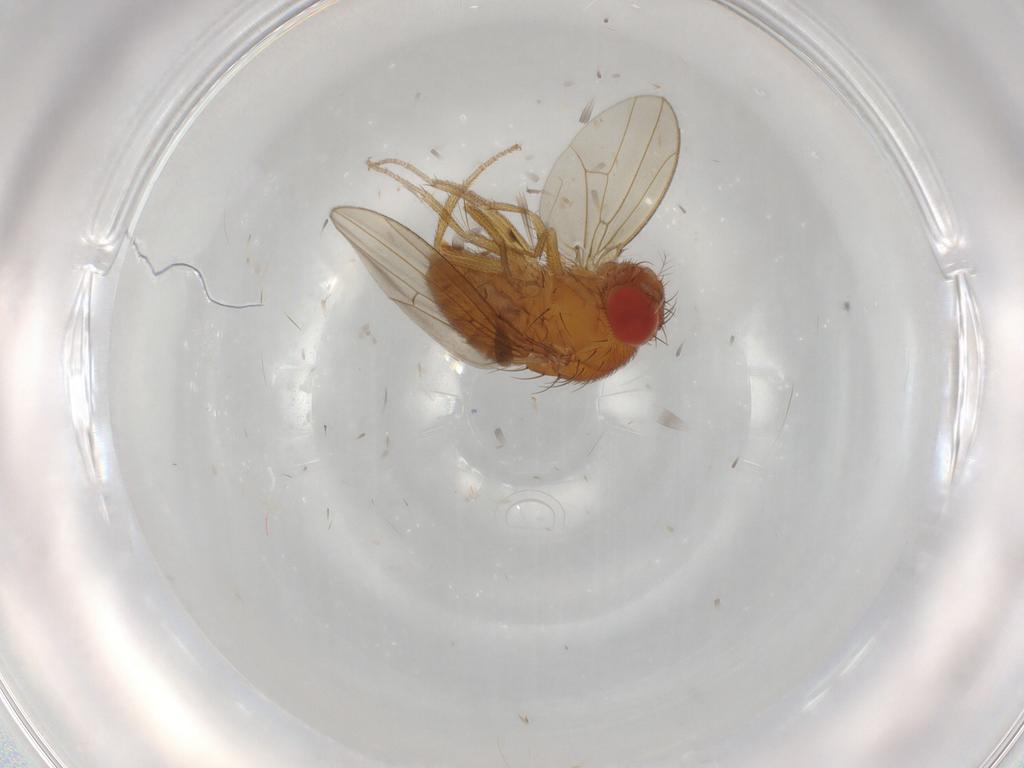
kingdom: Animalia
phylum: Arthropoda
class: Insecta
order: Diptera
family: Drosophilidae
